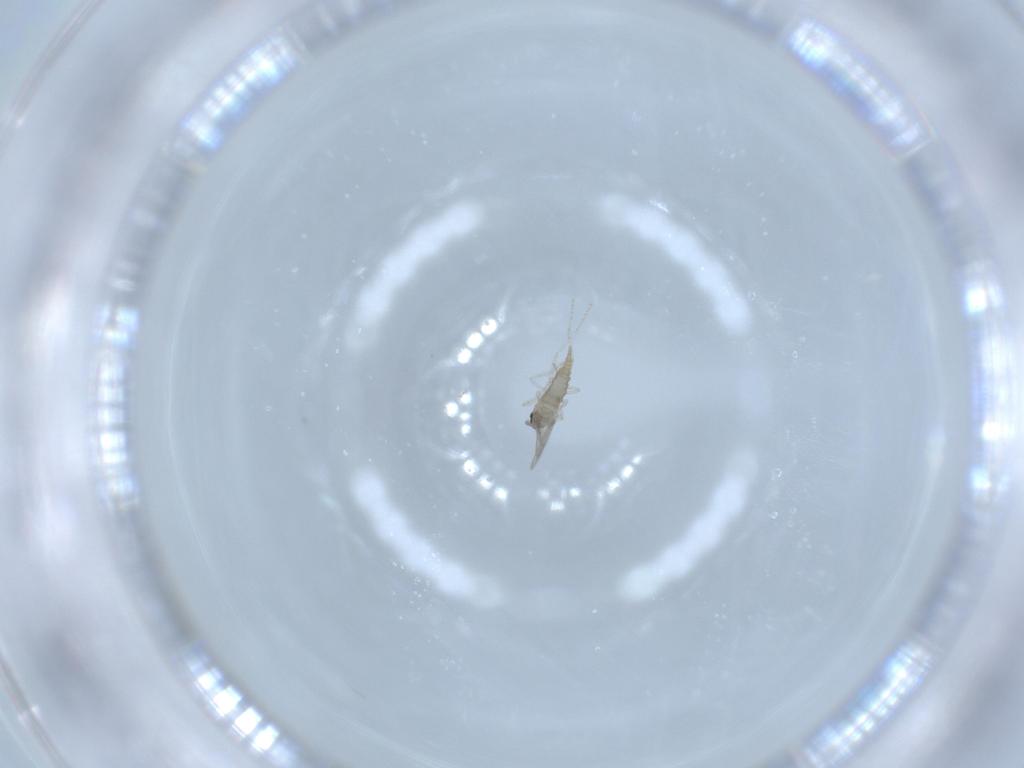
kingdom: Animalia
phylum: Arthropoda
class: Insecta
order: Diptera
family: Cecidomyiidae
